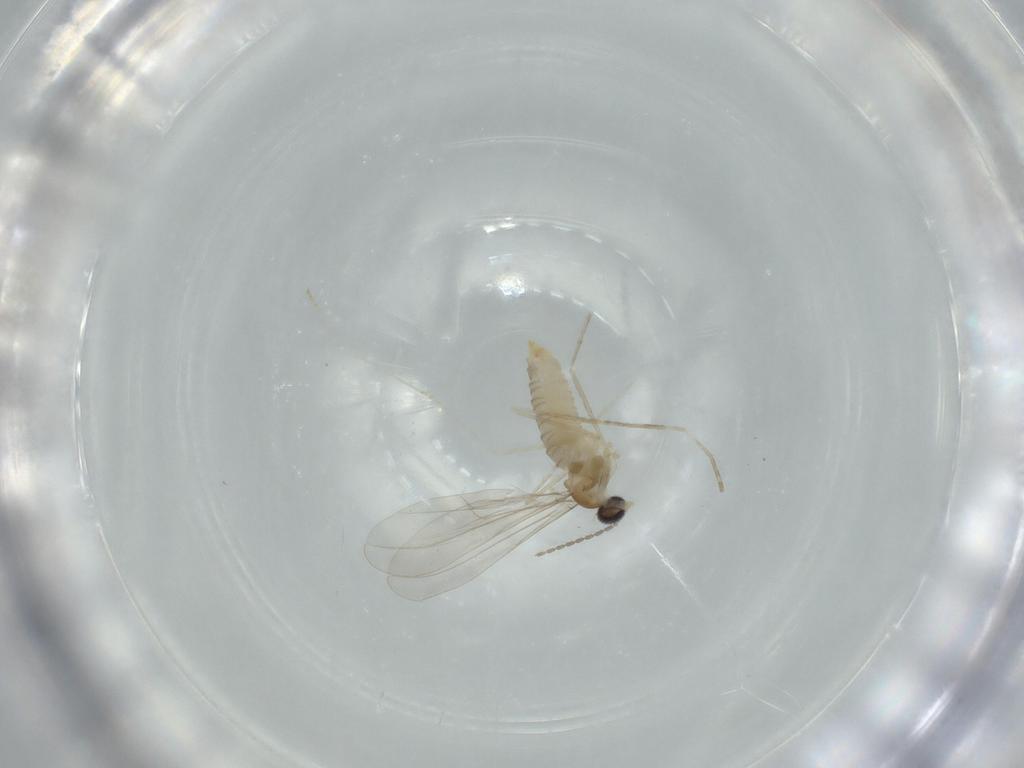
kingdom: Animalia
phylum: Arthropoda
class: Insecta
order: Diptera
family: Cecidomyiidae
